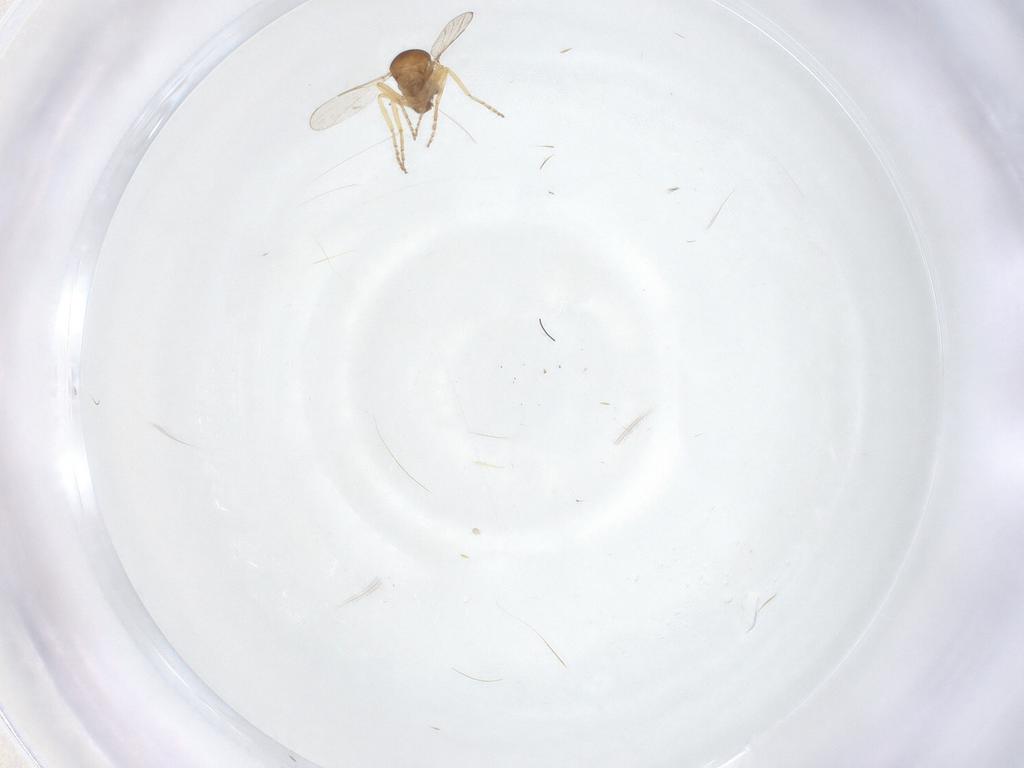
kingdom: Animalia
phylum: Arthropoda
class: Insecta
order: Diptera
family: Ceratopogonidae
